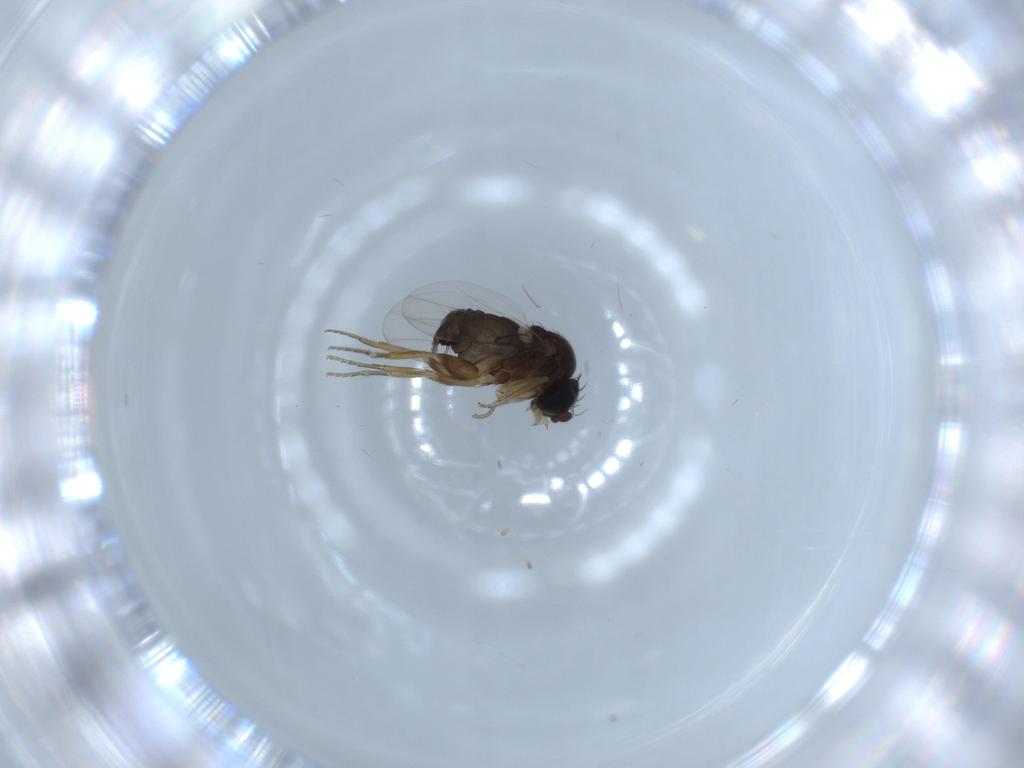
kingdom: Animalia
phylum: Arthropoda
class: Insecta
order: Diptera
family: Phoridae
